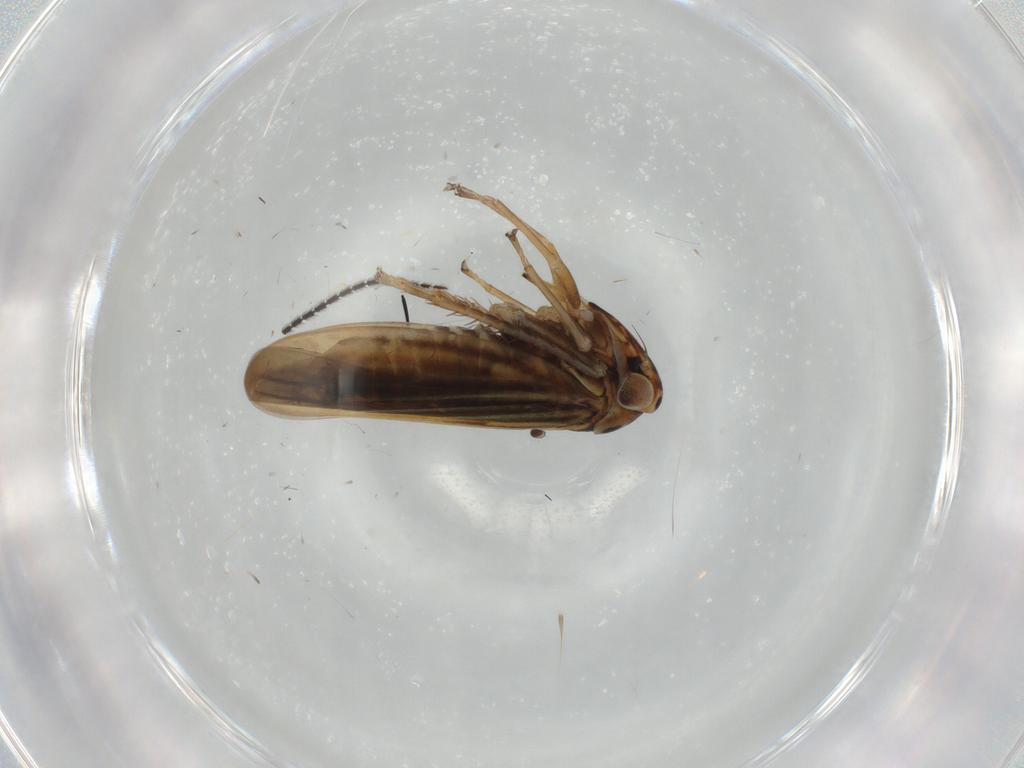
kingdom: Animalia
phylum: Arthropoda
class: Insecta
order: Hemiptera
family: Cicadellidae
